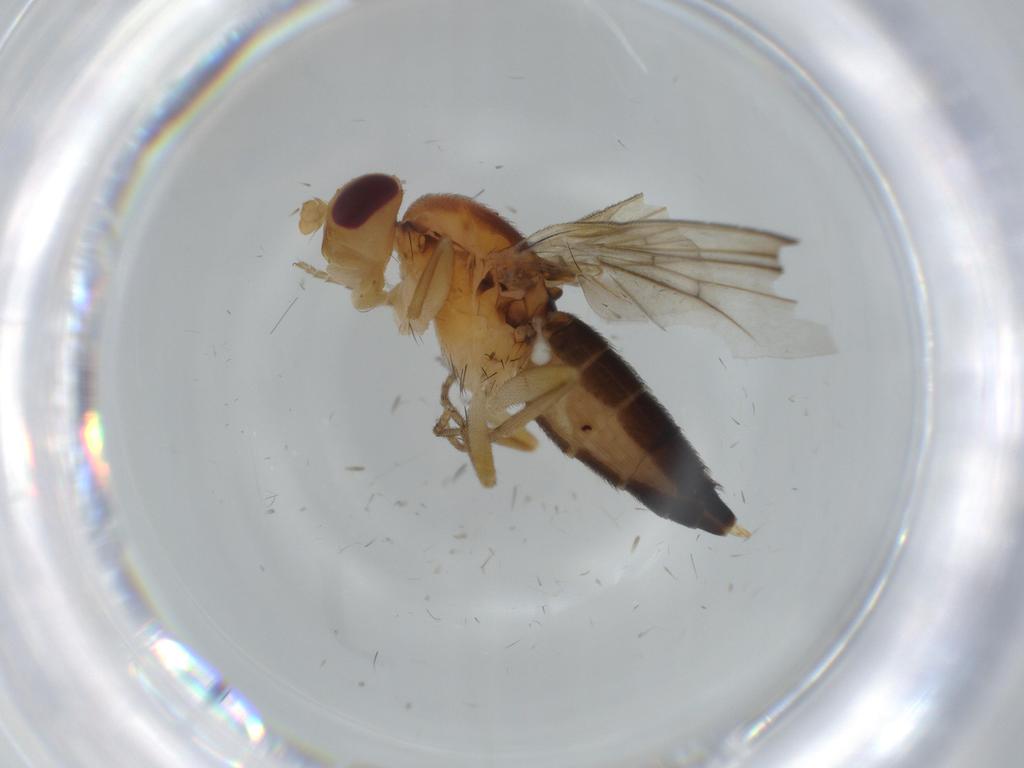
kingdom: Animalia
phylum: Arthropoda
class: Insecta
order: Diptera
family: Clusiidae
